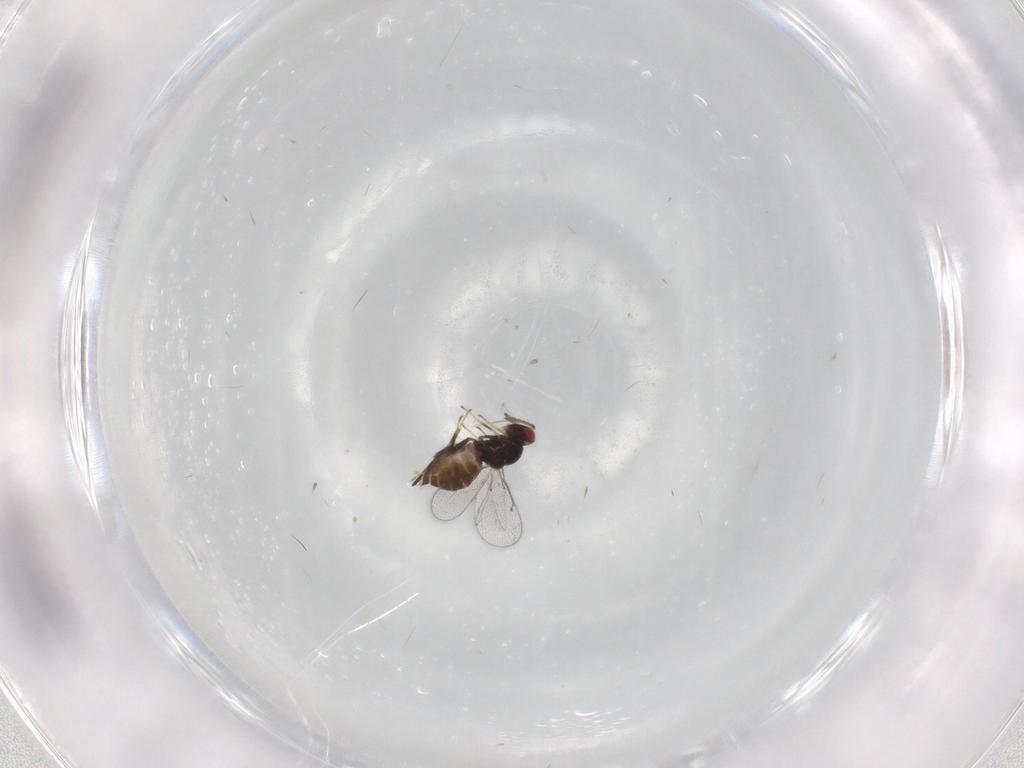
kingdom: Animalia
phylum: Arthropoda
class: Insecta
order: Hymenoptera
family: Eulophidae
